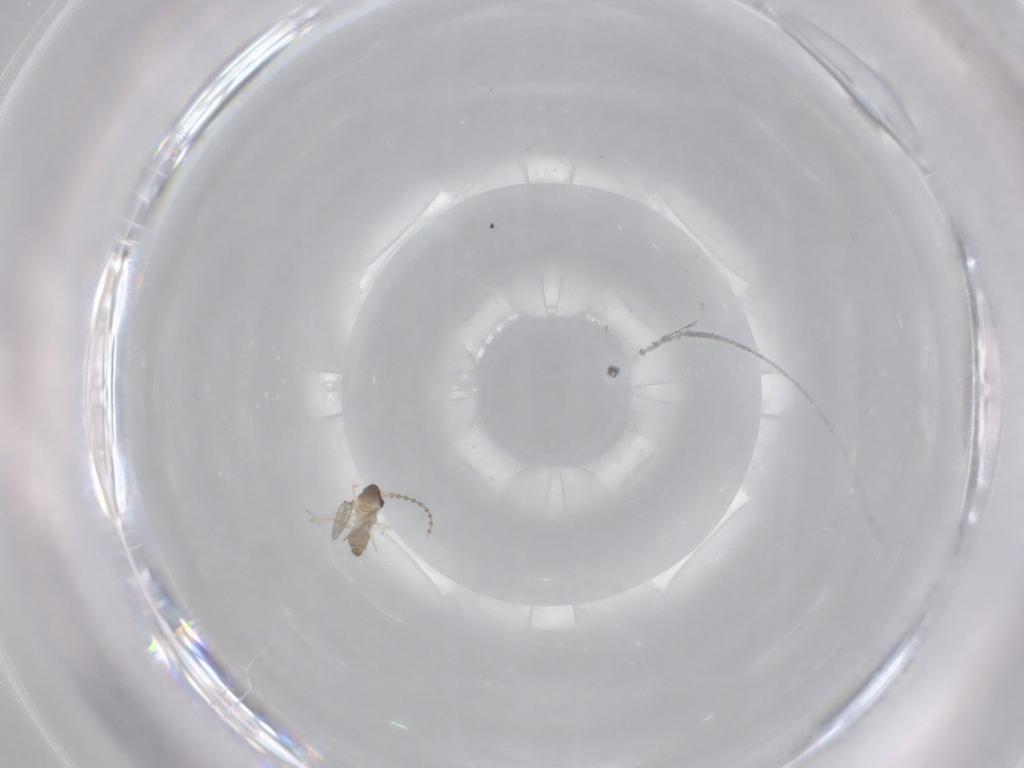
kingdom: Animalia
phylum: Arthropoda
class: Insecta
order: Diptera
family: Cecidomyiidae
